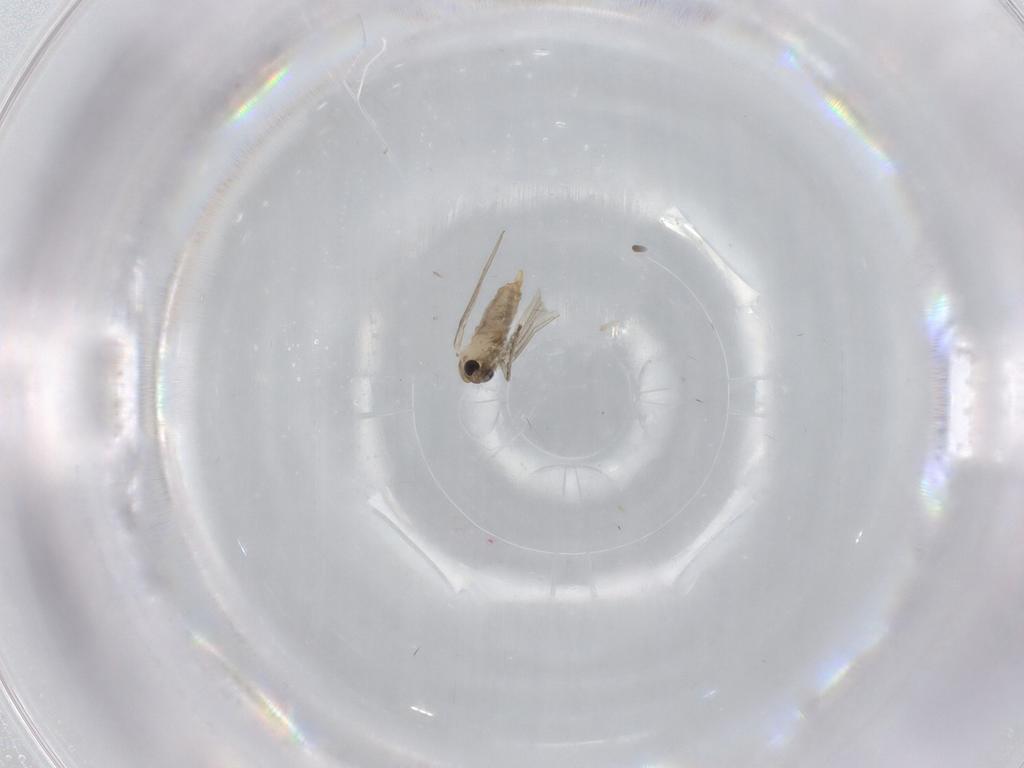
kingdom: Animalia
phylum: Arthropoda
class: Insecta
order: Diptera
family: Psychodidae
